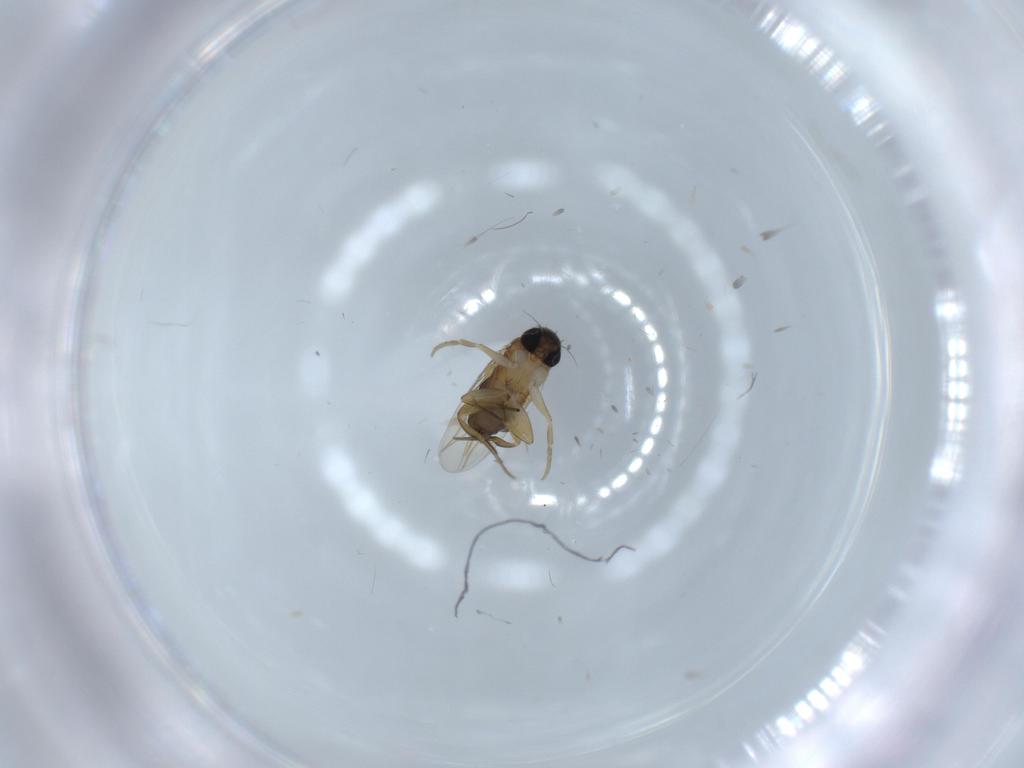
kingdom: Animalia
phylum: Arthropoda
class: Insecta
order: Diptera
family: Phoridae
